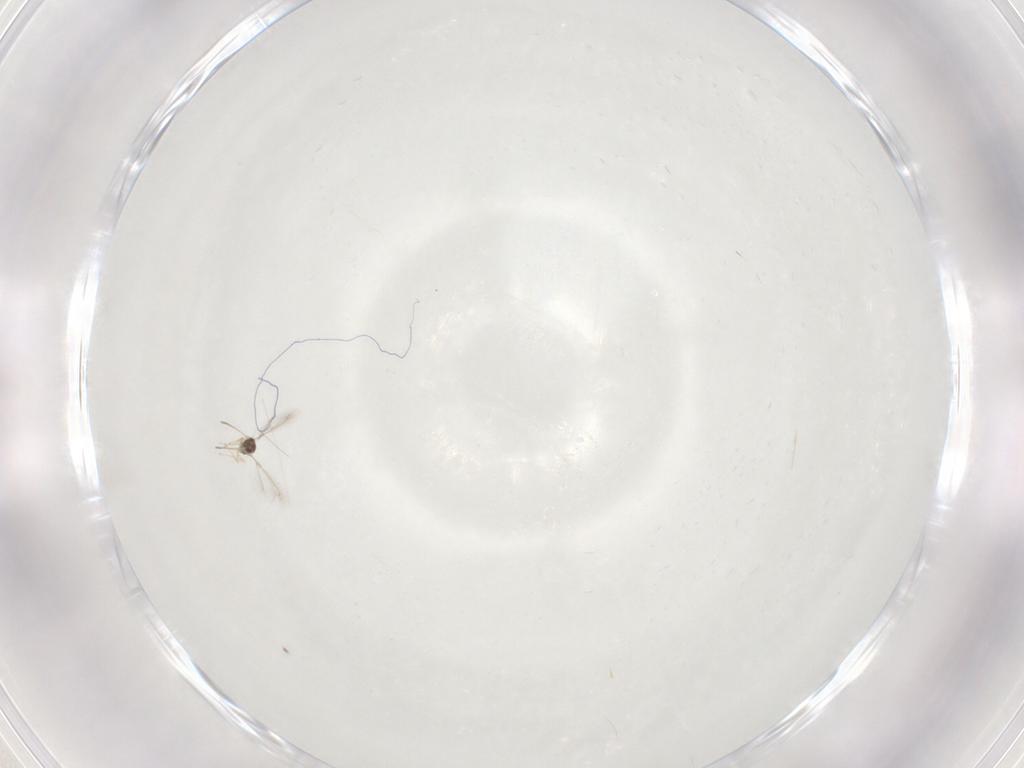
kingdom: Animalia
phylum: Arthropoda
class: Insecta
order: Hymenoptera
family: Mymaridae
